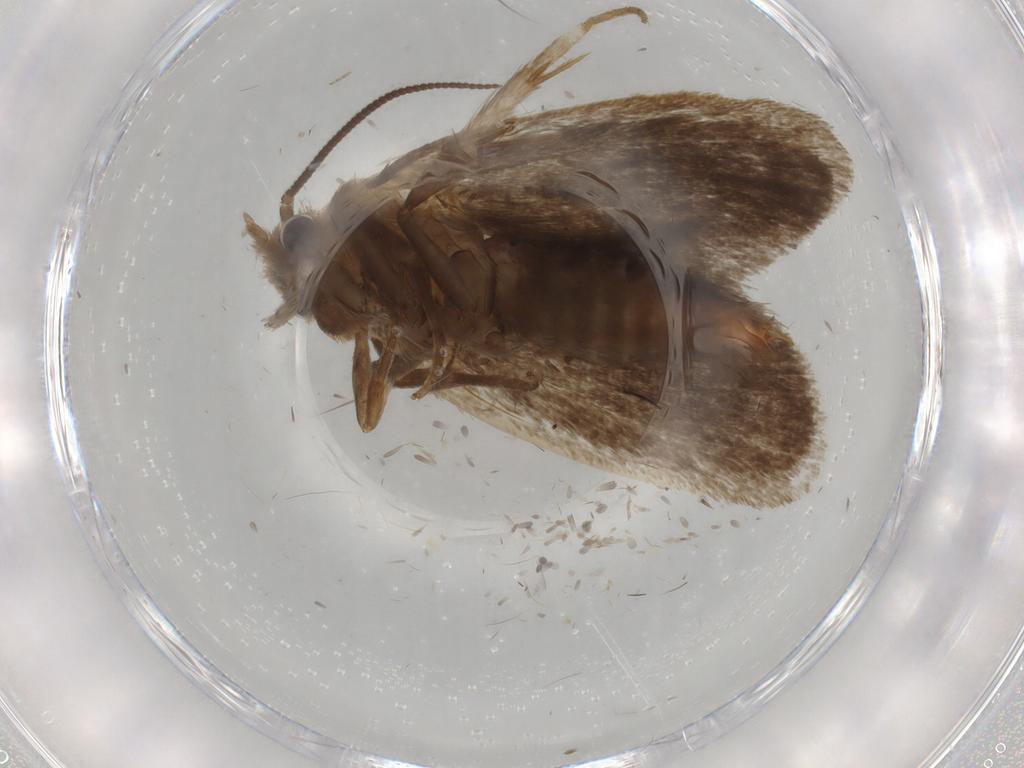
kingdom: Animalia
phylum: Arthropoda
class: Insecta
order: Lepidoptera
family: Tineidae
